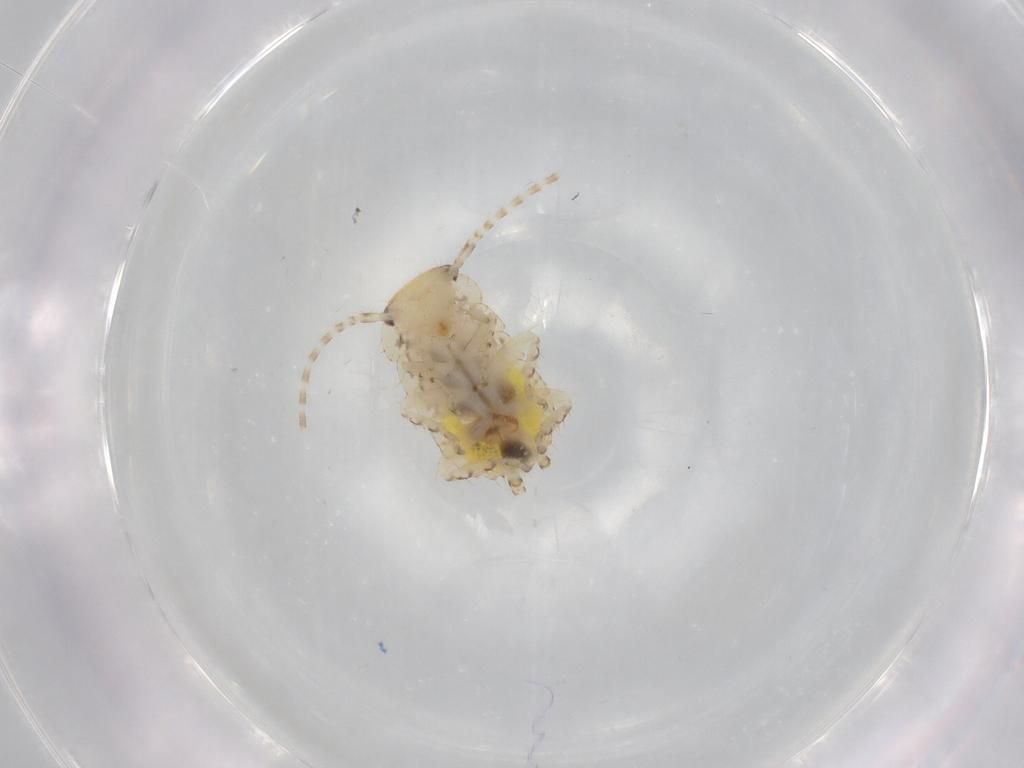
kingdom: Animalia
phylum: Arthropoda
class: Insecta
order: Blattodea
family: Ectobiidae
